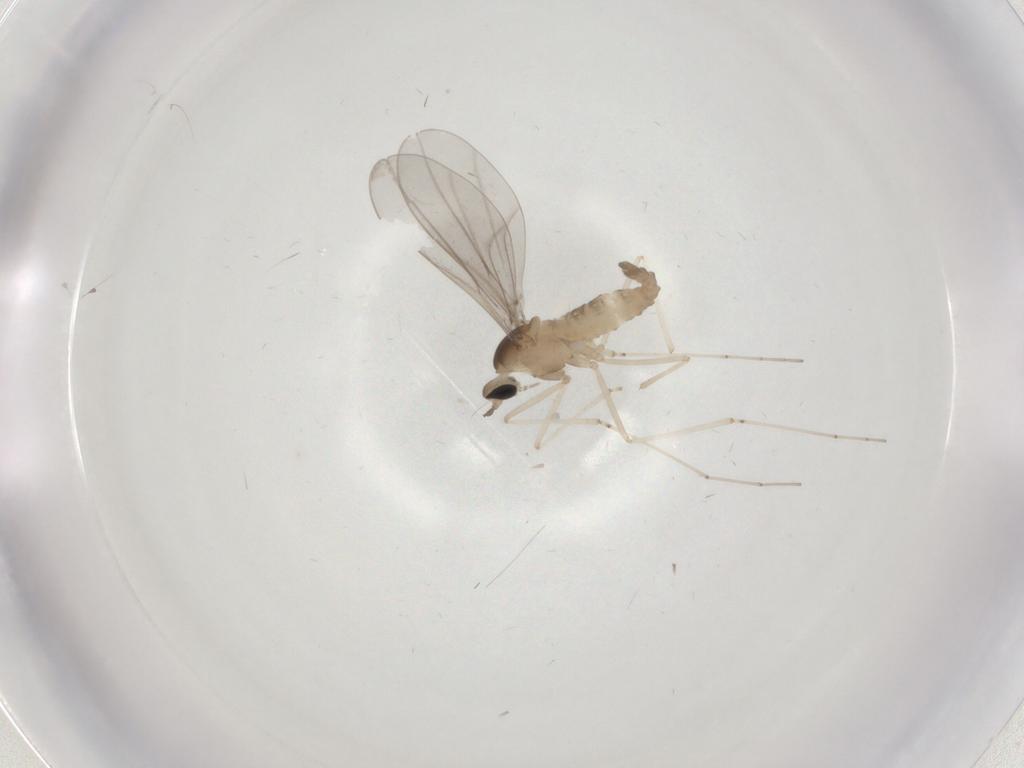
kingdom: Animalia
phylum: Arthropoda
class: Insecta
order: Diptera
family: Cecidomyiidae
